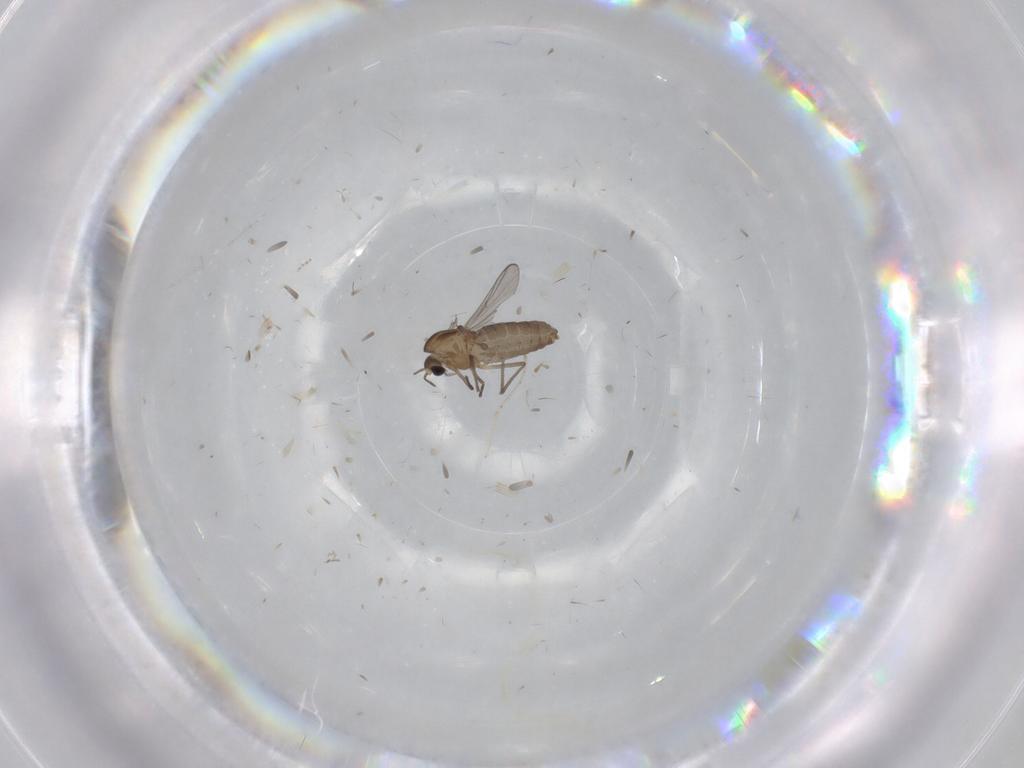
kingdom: Animalia
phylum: Arthropoda
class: Insecta
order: Diptera
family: Chironomidae
